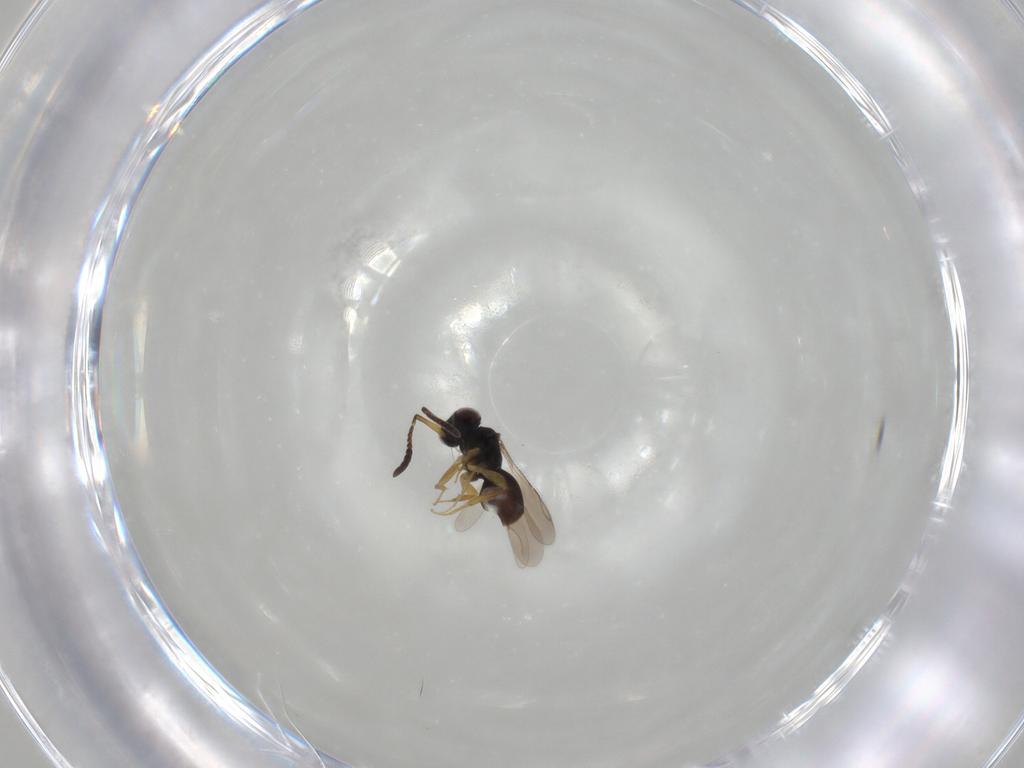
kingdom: Animalia
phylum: Arthropoda
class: Insecta
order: Hymenoptera
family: Ceraphronidae
